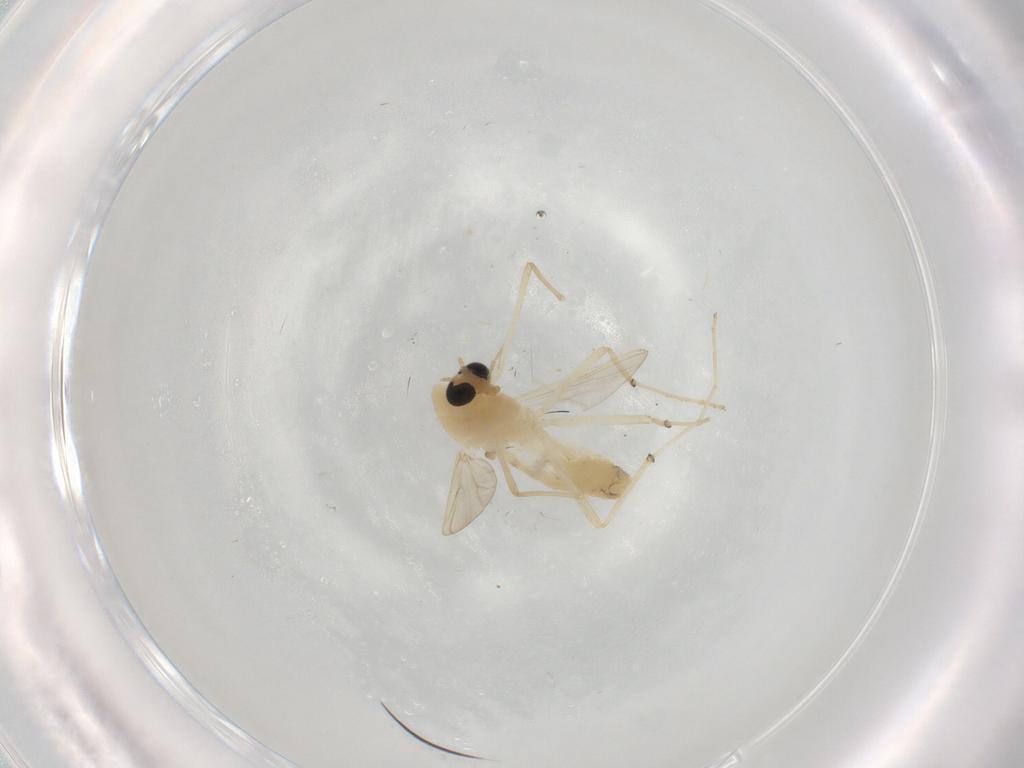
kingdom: Animalia
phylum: Arthropoda
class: Insecta
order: Diptera
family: Chironomidae
